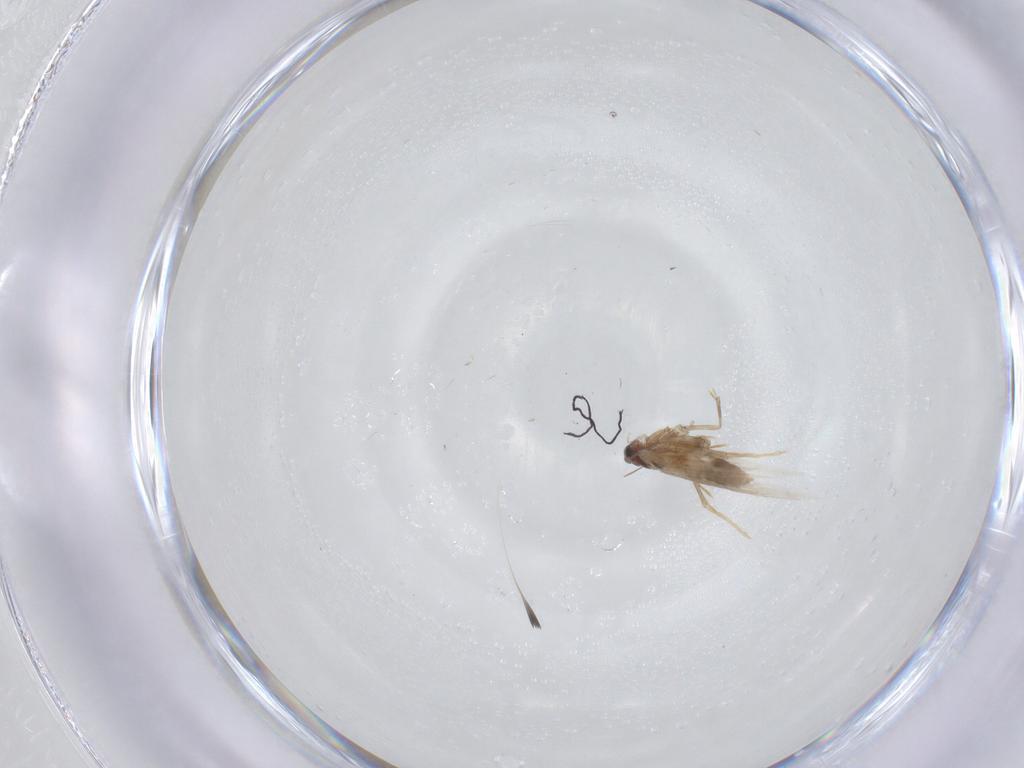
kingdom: Animalia
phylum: Arthropoda
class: Insecta
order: Lepidoptera
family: Nepticulidae
